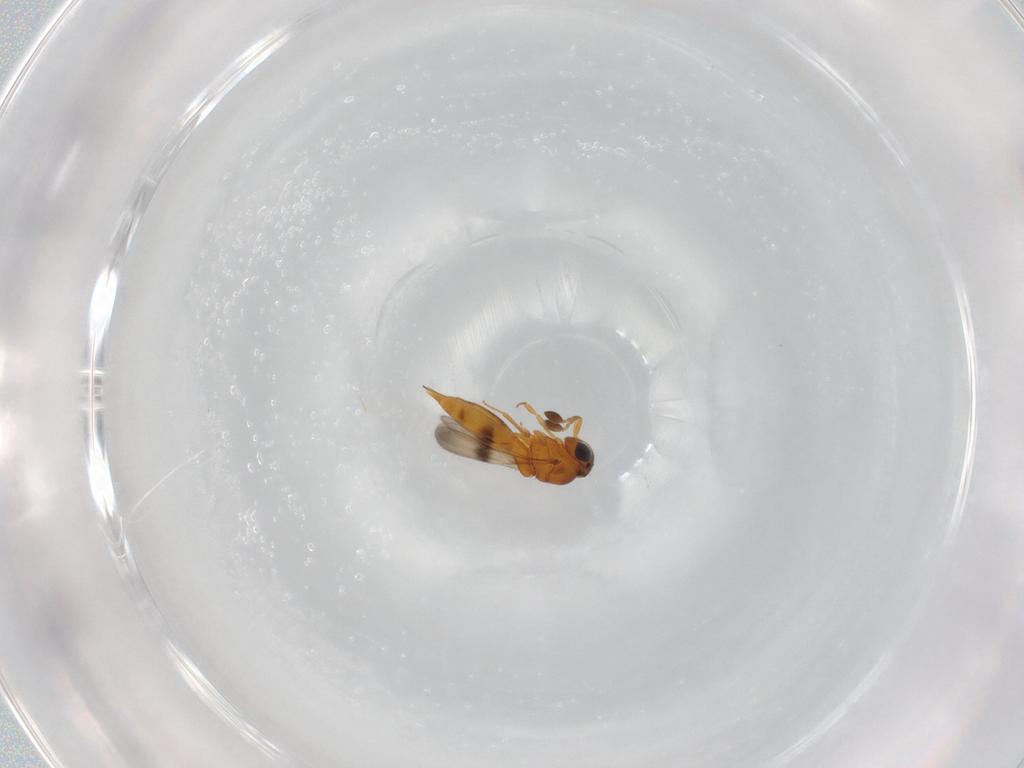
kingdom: Animalia
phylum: Arthropoda
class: Insecta
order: Hymenoptera
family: Scelionidae
